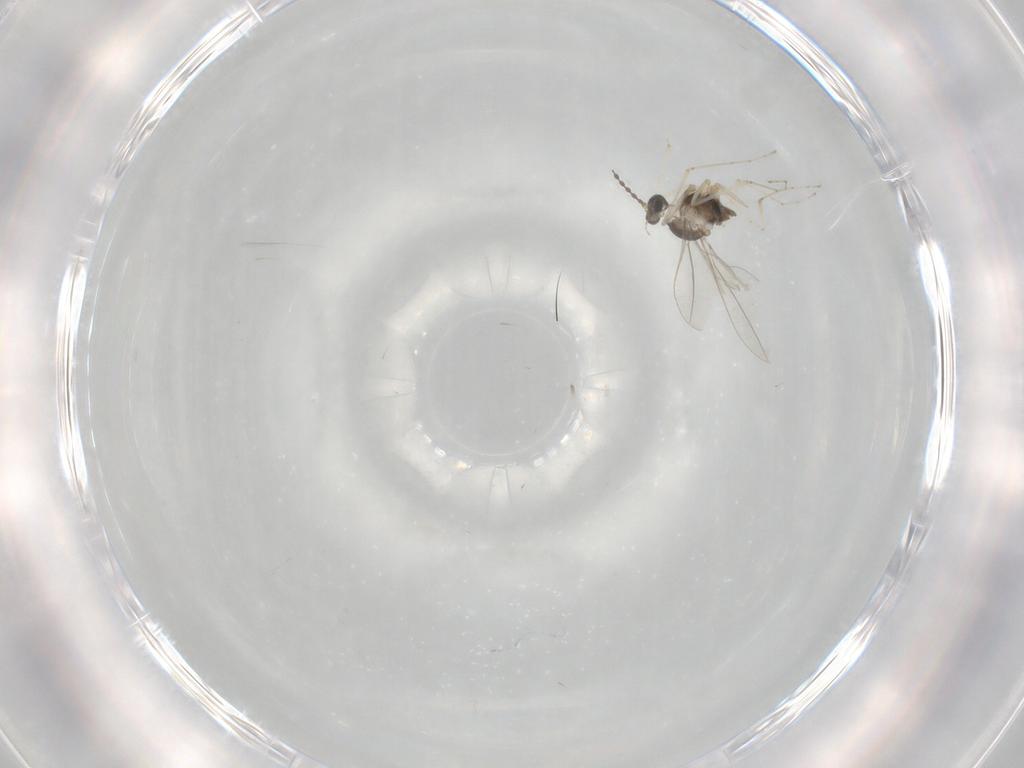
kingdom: Animalia
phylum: Arthropoda
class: Insecta
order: Diptera
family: Cecidomyiidae
